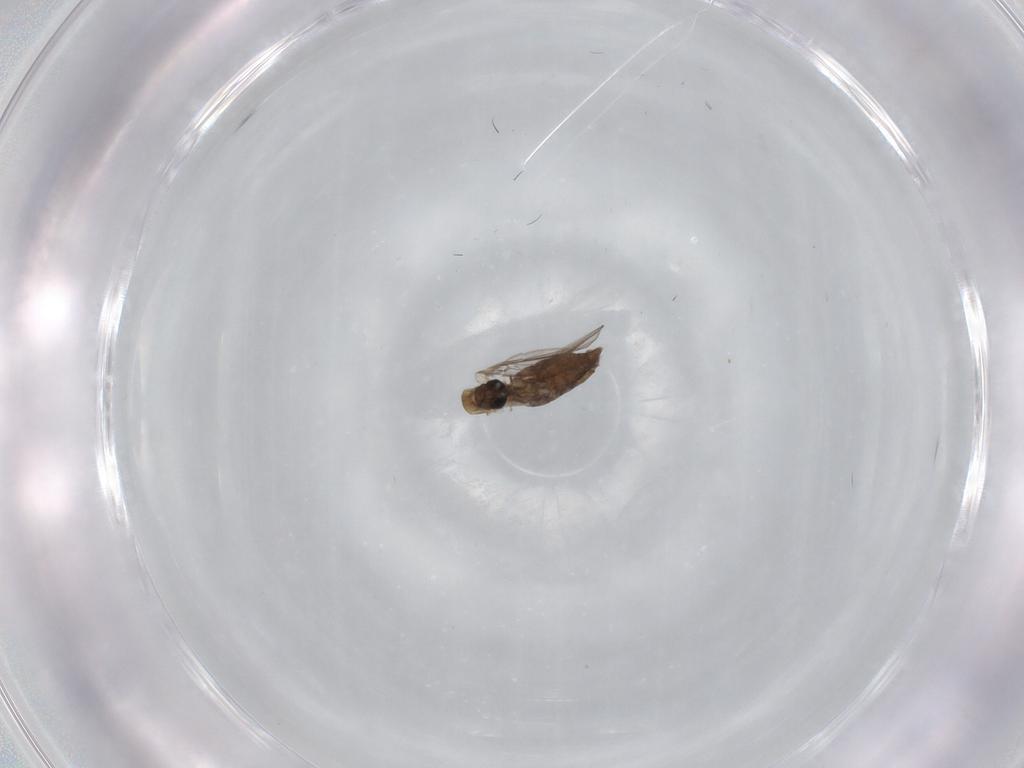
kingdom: Animalia
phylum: Arthropoda
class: Insecta
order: Diptera
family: Psychodidae
